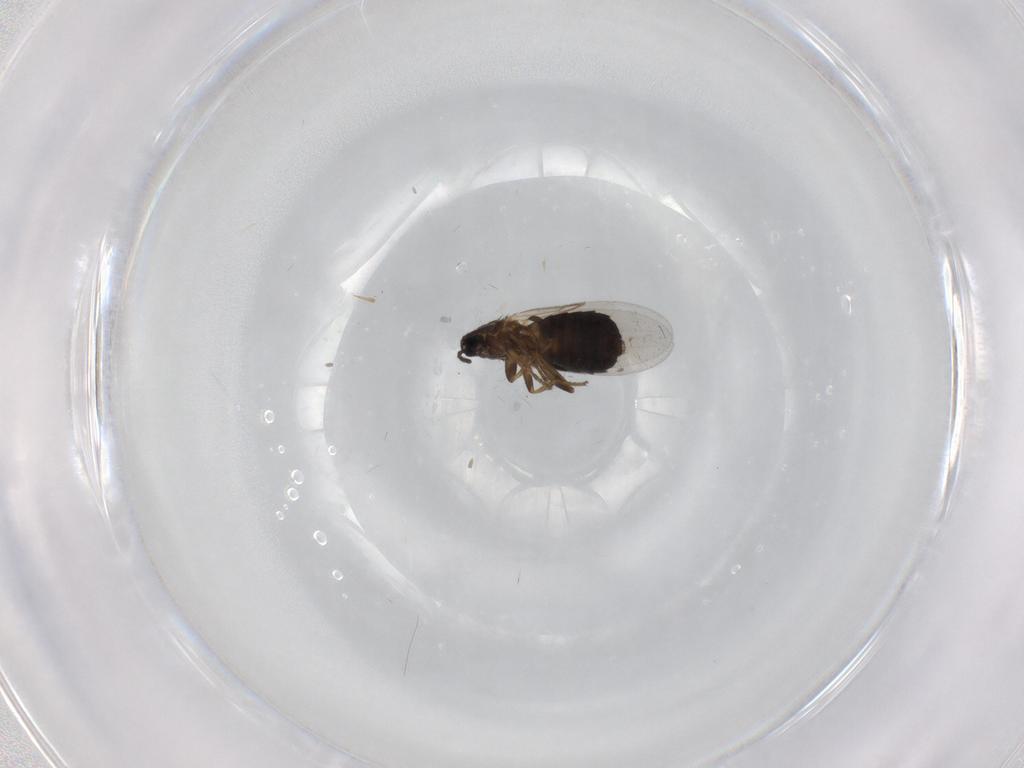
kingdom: Animalia
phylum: Arthropoda
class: Insecta
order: Diptera
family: Scatopsidae
